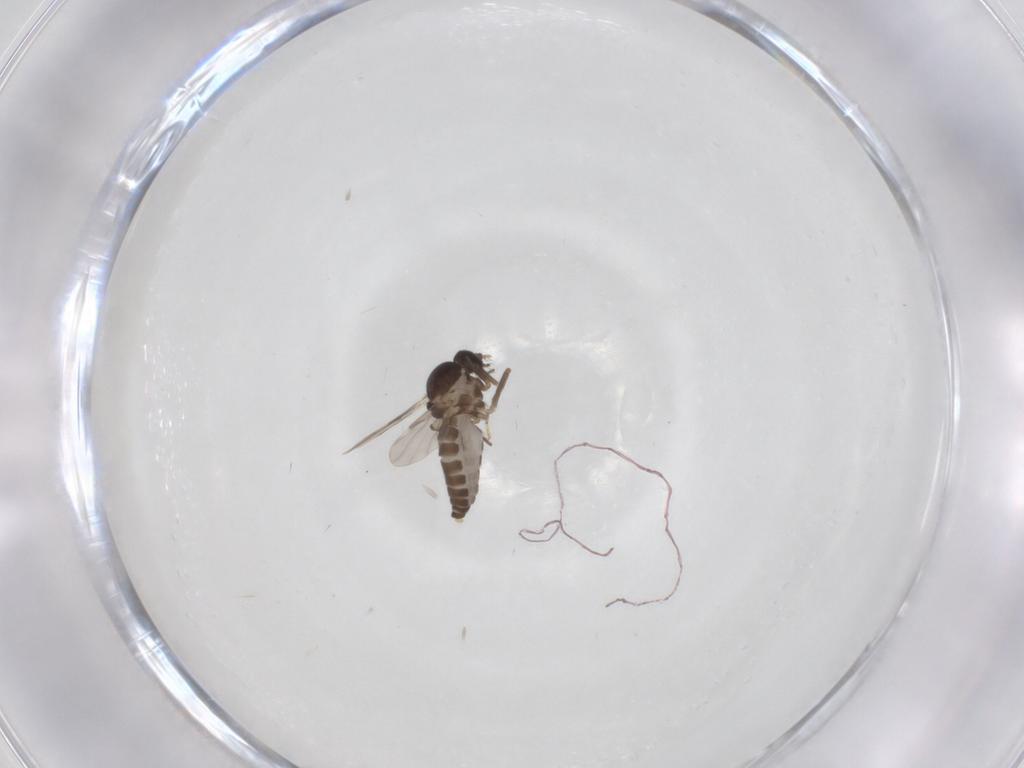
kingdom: Animalia
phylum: Arthropoda
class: Insecta
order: Diptera
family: Ceratopogonidae
